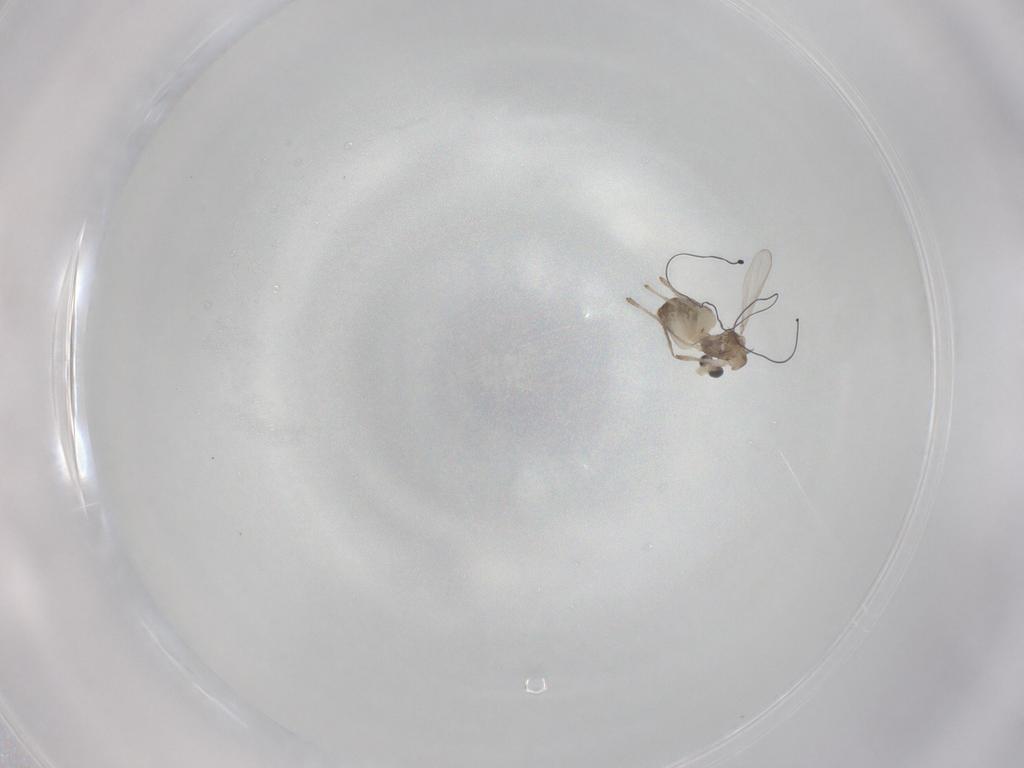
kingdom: Animalia
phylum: Arthropoda
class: Insecta
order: Diptera
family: Chironomidae
